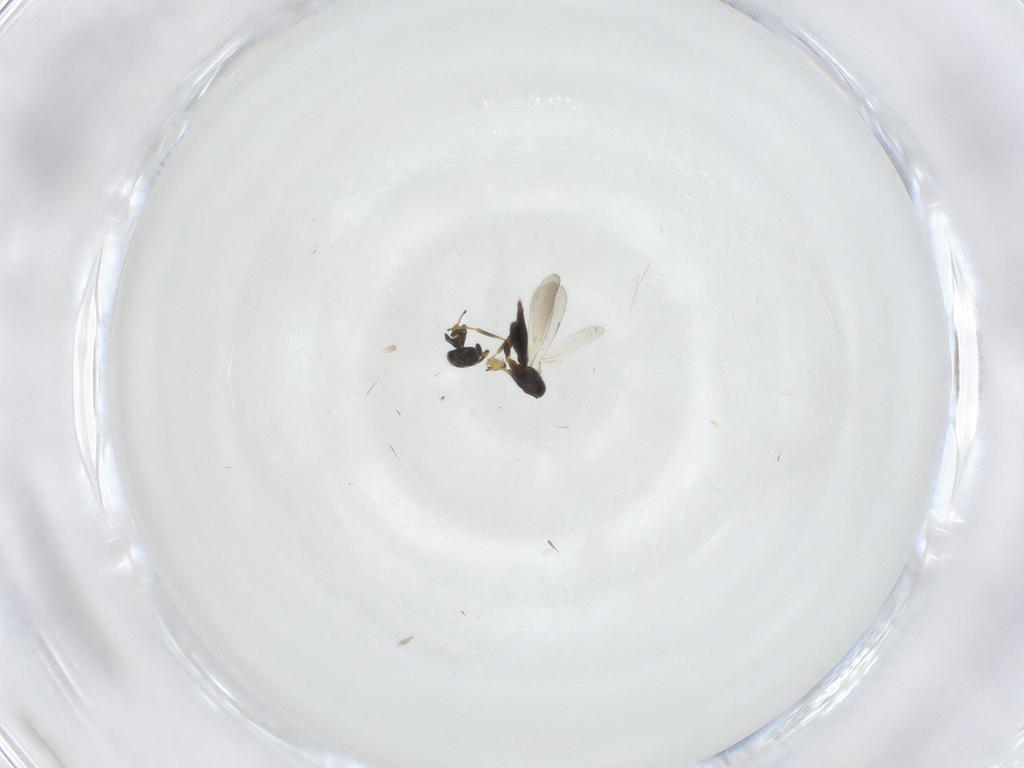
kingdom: Animalia
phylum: Arthropoda
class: Insecta
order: Hymenoptera
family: Platygastridae
